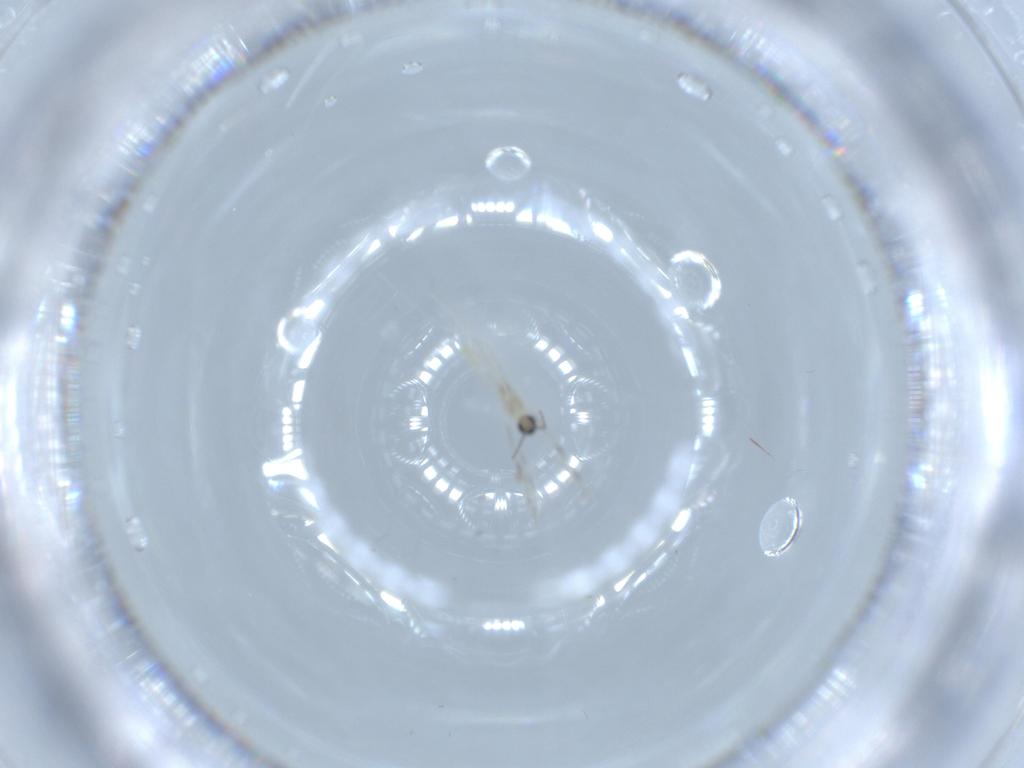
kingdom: Animalia
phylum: Arthropoda
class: Insecta
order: Diptera
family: Cecidomyiidae
